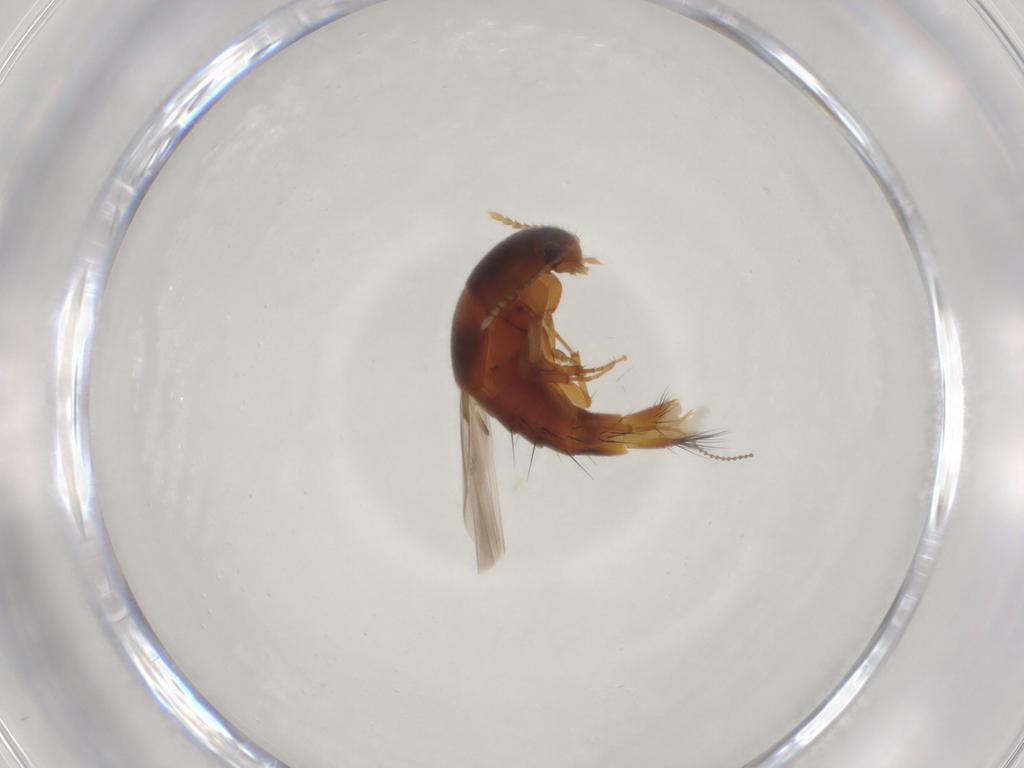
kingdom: Animalia
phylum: Arthropoda
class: Insecta
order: Coleoptera
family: Staphylinidae
